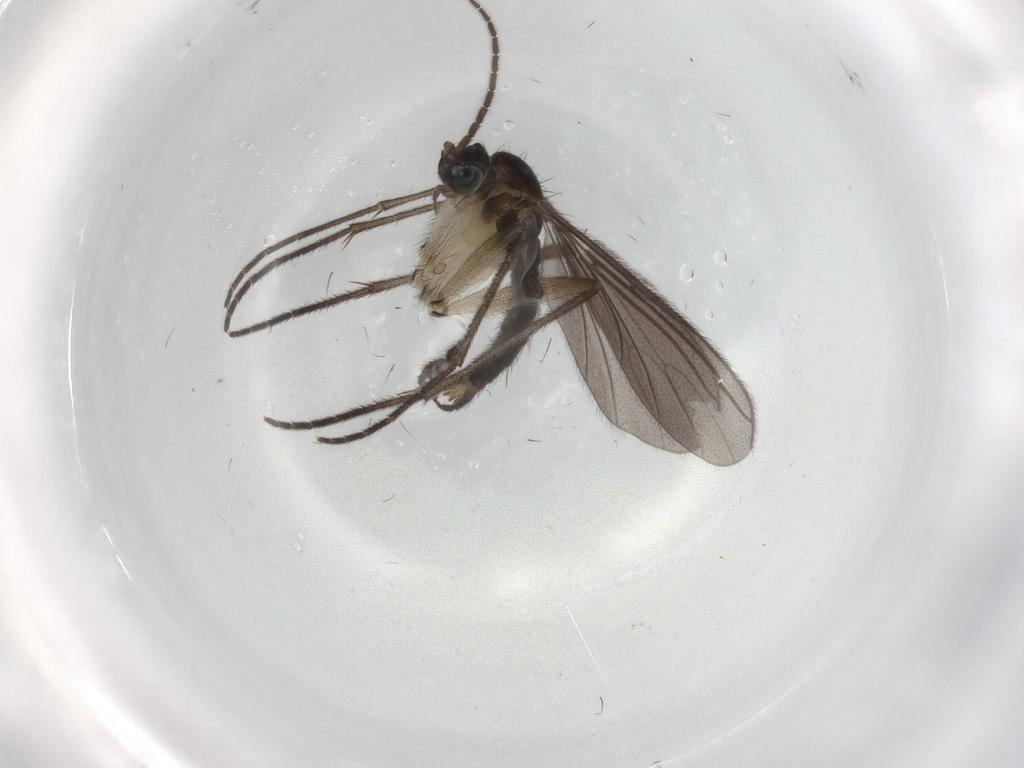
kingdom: Animalia
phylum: Arthropoda
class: Insecta
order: Diptera
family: Sciaridae
